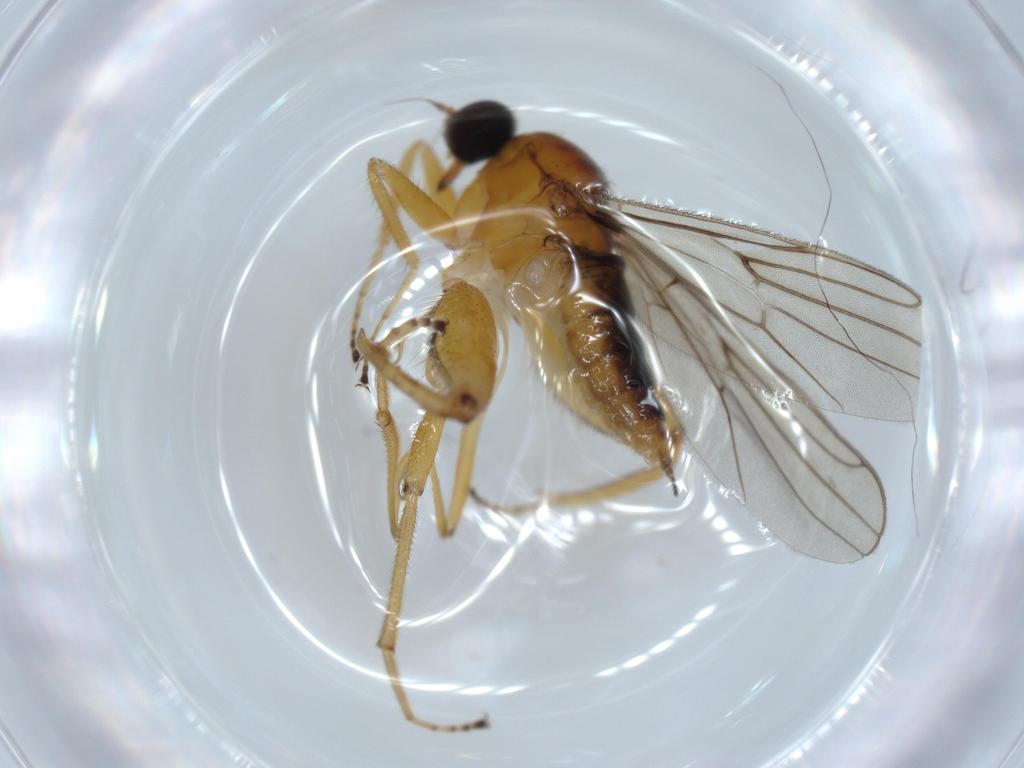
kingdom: Animalia
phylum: Arthropoda
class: Insecta
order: Diptera
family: Hybotidae
